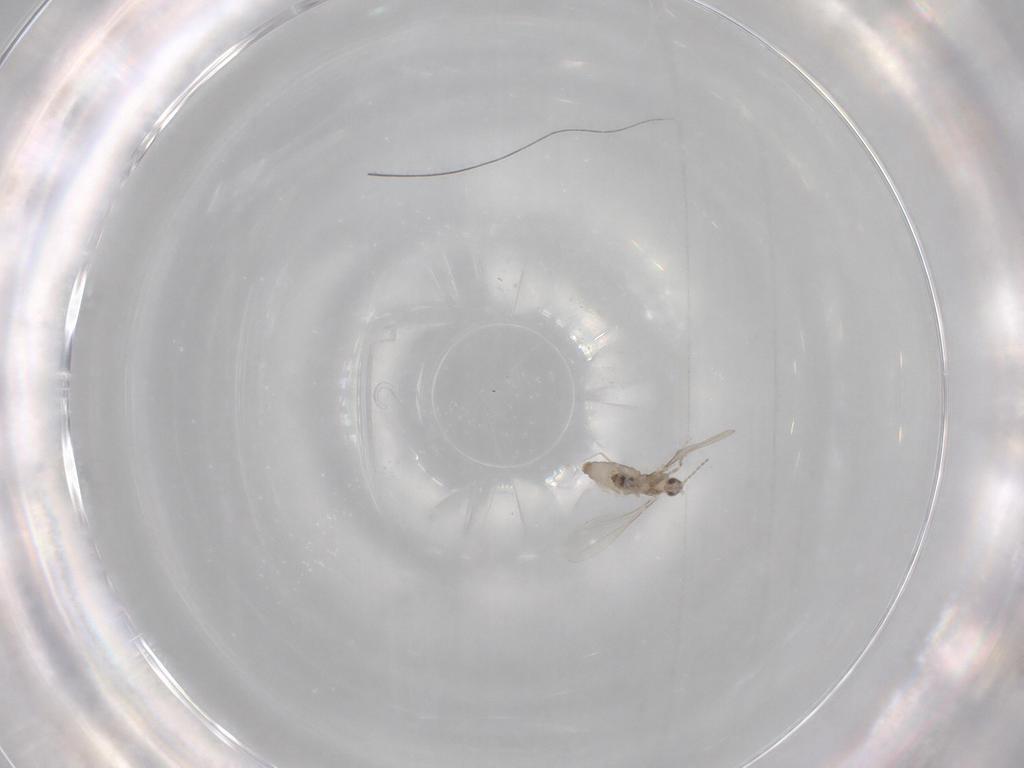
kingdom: Animalia
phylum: Arthropoda
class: Insecta
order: Diptera
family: Cecidomyiidae
